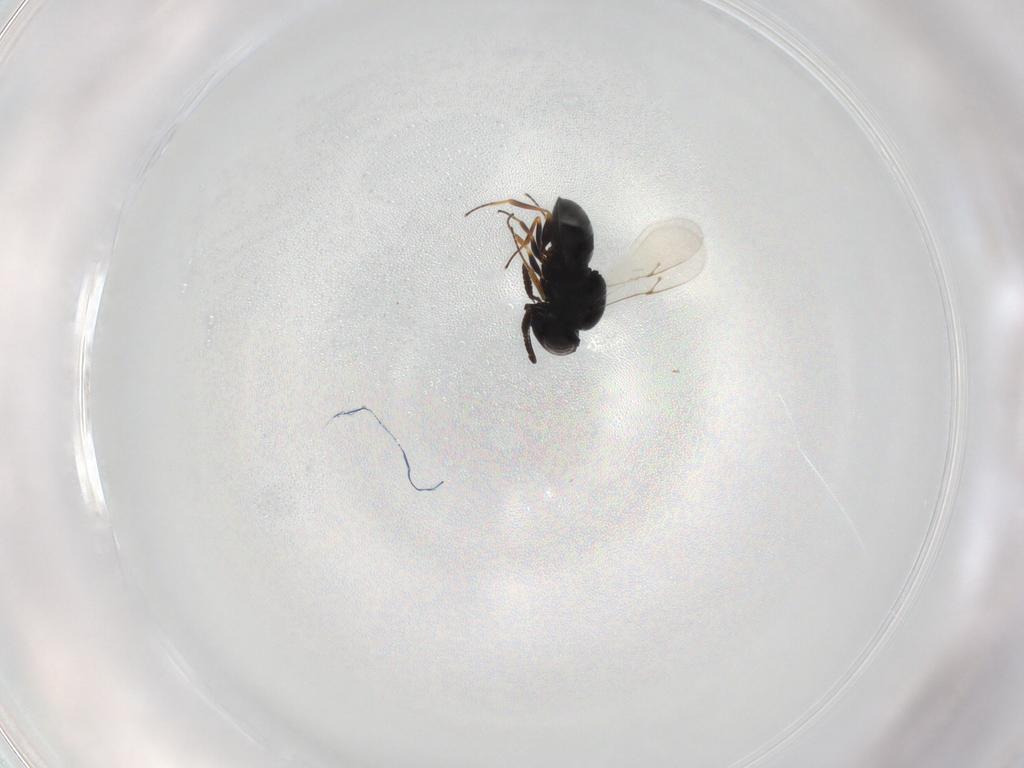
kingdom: Animalia
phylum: Arthropoda
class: Insecta
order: Hymenoptera
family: Scelionidae
